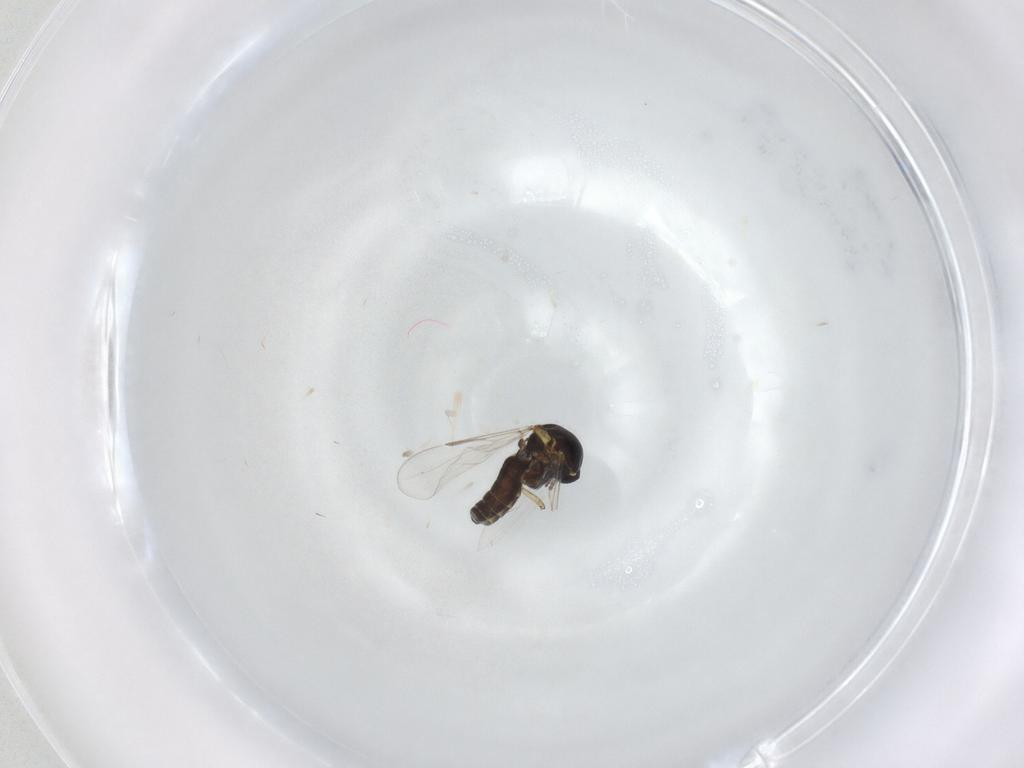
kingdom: Animalia
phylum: Arthropoda
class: Insecta
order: Diptera
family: Ceratopogonidae
